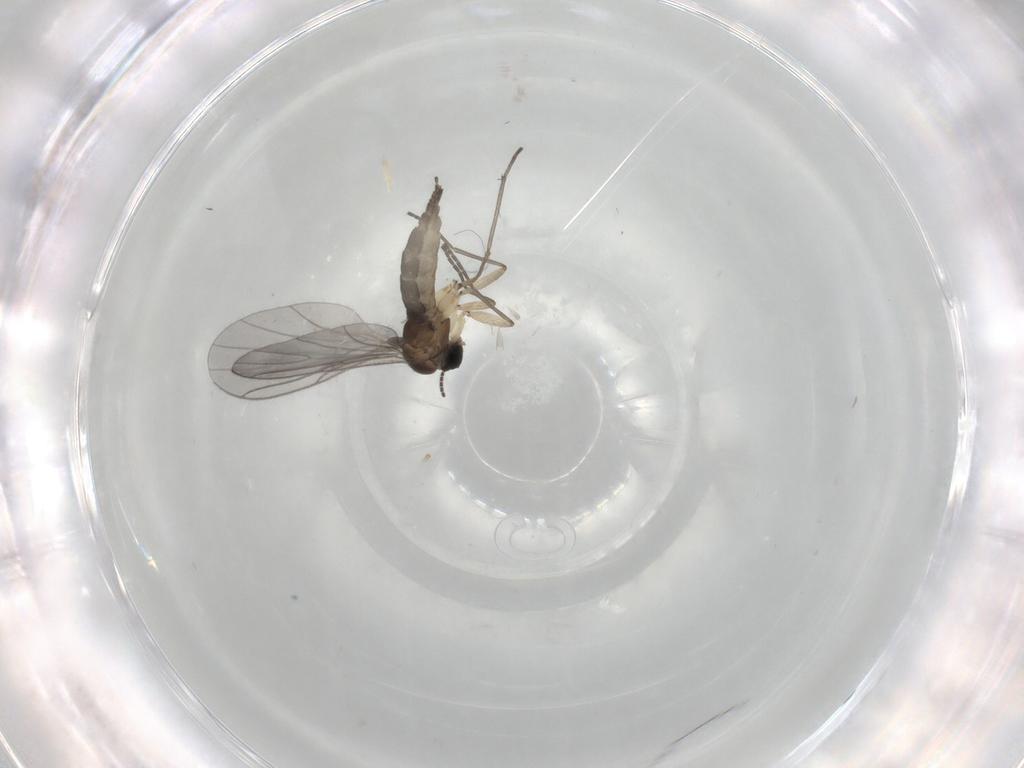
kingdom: Animalia
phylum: Arthropoda
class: Insecta
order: Diptera
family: Sciaridae
